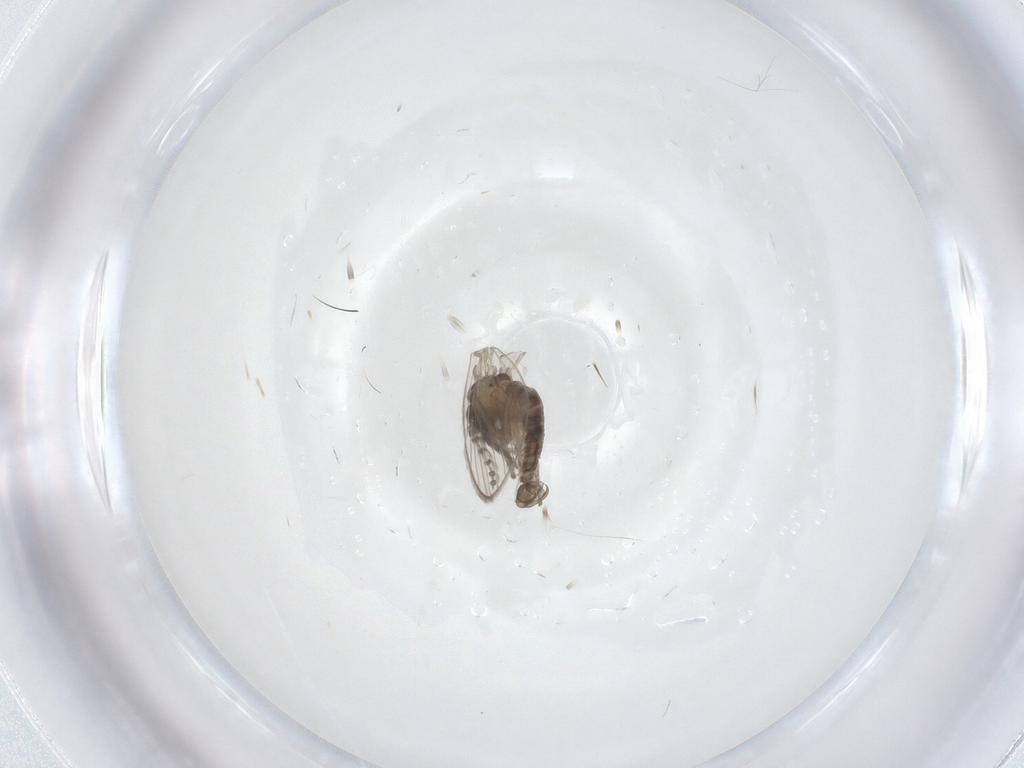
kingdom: Animalia
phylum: Arthropoda
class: Insecta
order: Diptera
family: Psychodidae
